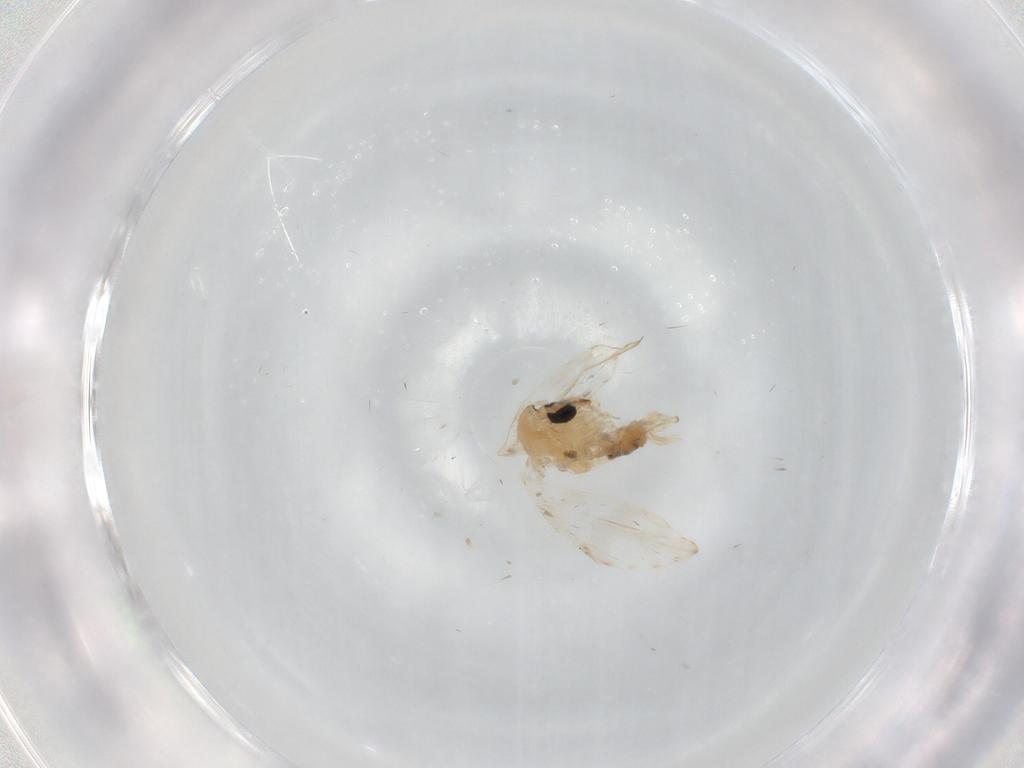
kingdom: Animalia
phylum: Arthropoda
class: Insecta
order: Diptera
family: Psychodidae
